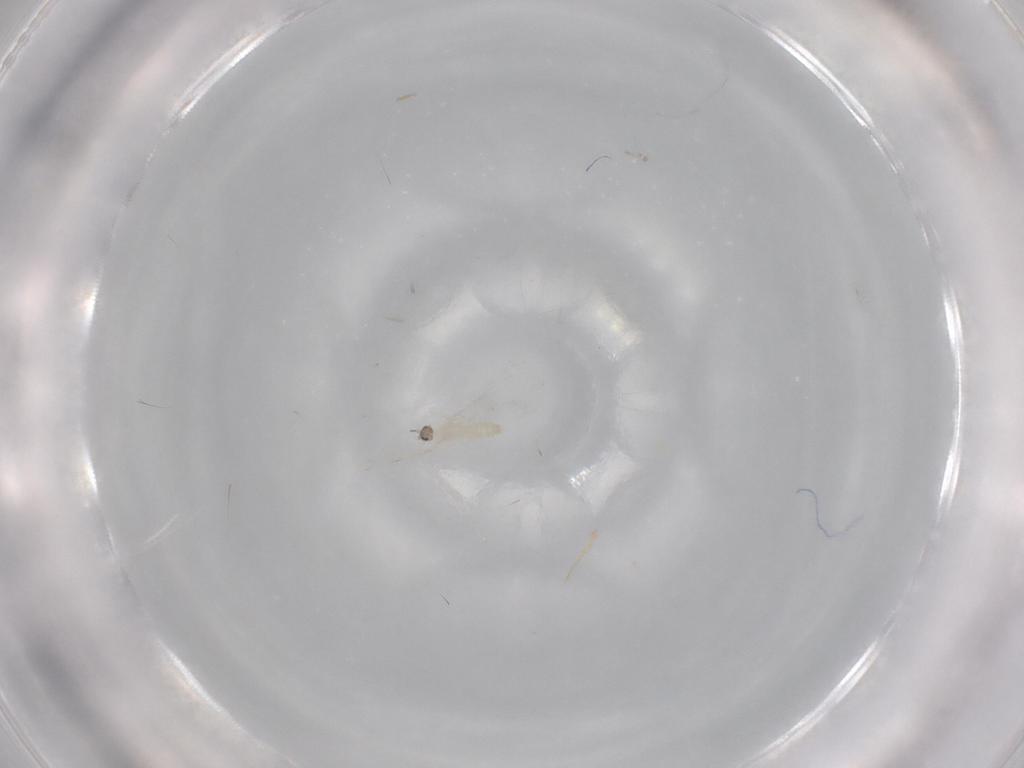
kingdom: Animalia
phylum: Arthropoda
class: Insecta
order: Diptera
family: Cecidomyiidae
